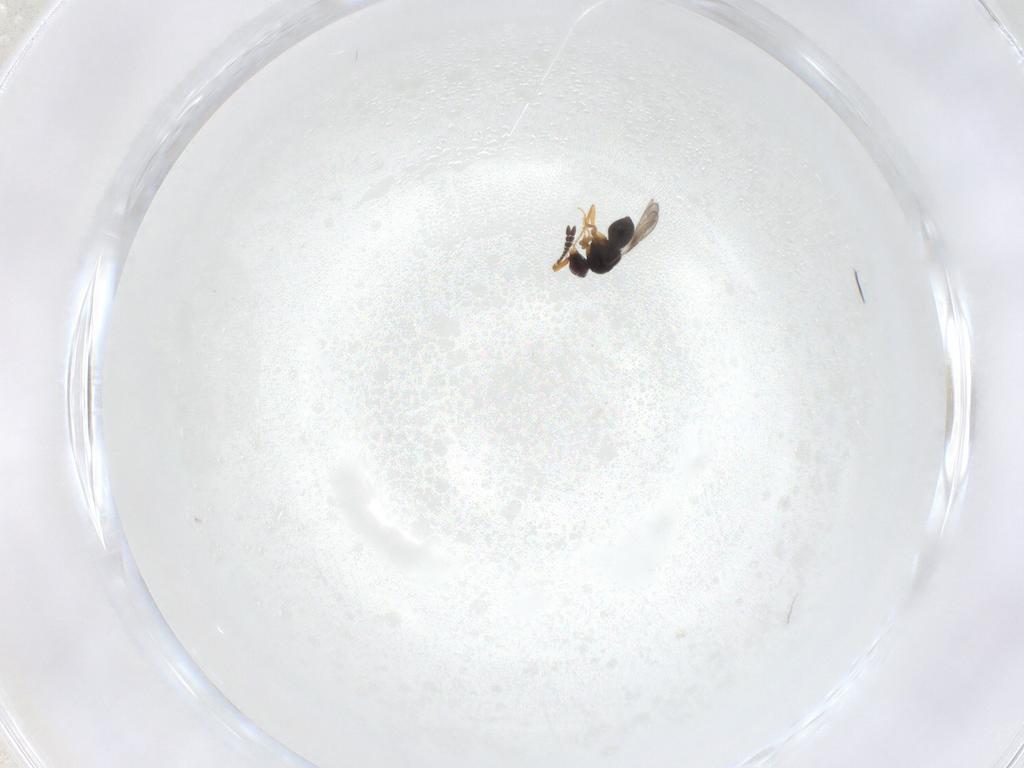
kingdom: Animalia
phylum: Arthropoda
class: Insecta
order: Hymenoptera
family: Ceraphronidae
